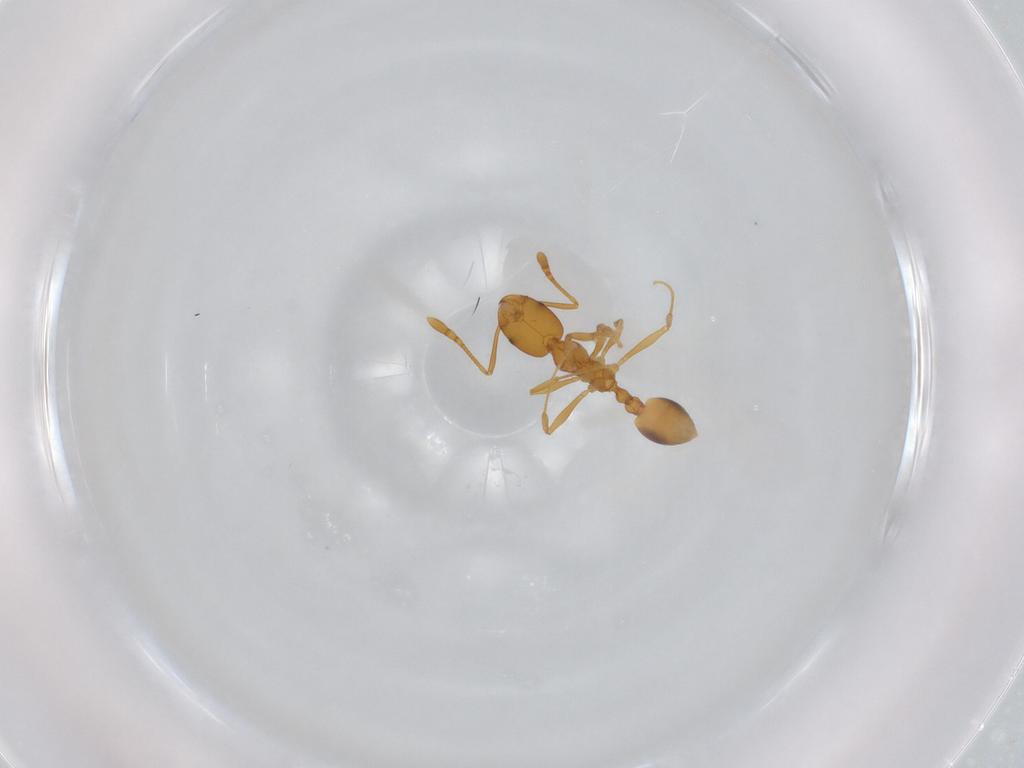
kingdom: Animalia
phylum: Arthropoda
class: Insecta
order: Hymenoptera
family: Formicidae
